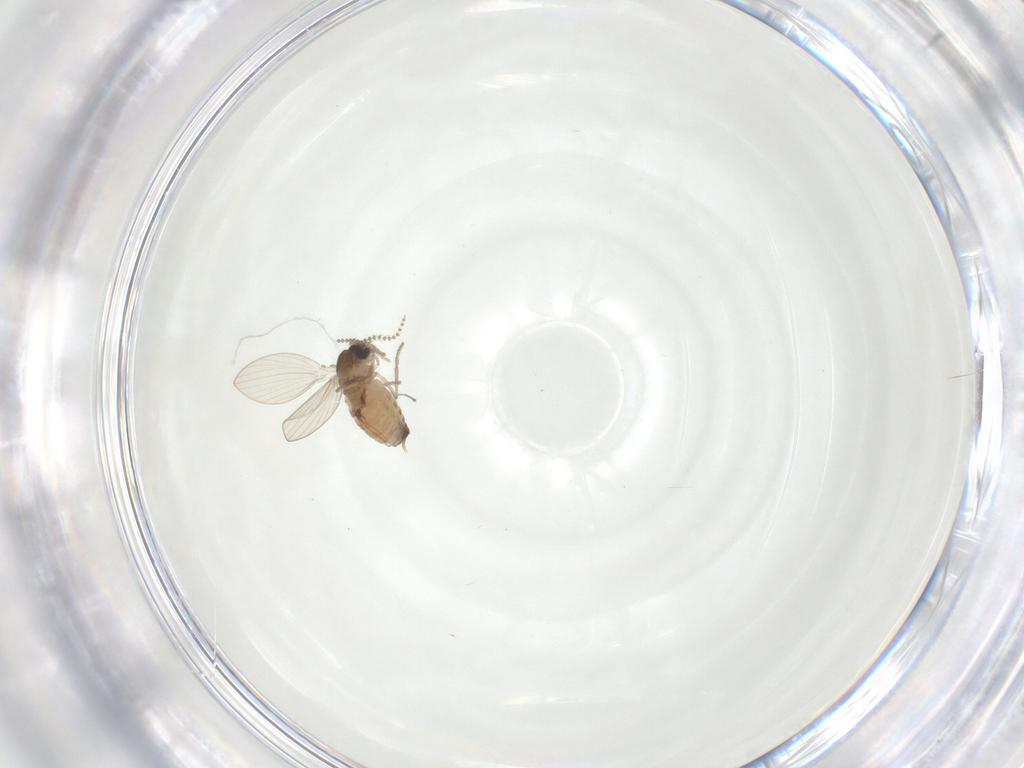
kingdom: Animalia
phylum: Arthropoda
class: Insecta
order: Diptera
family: Psychodidae
